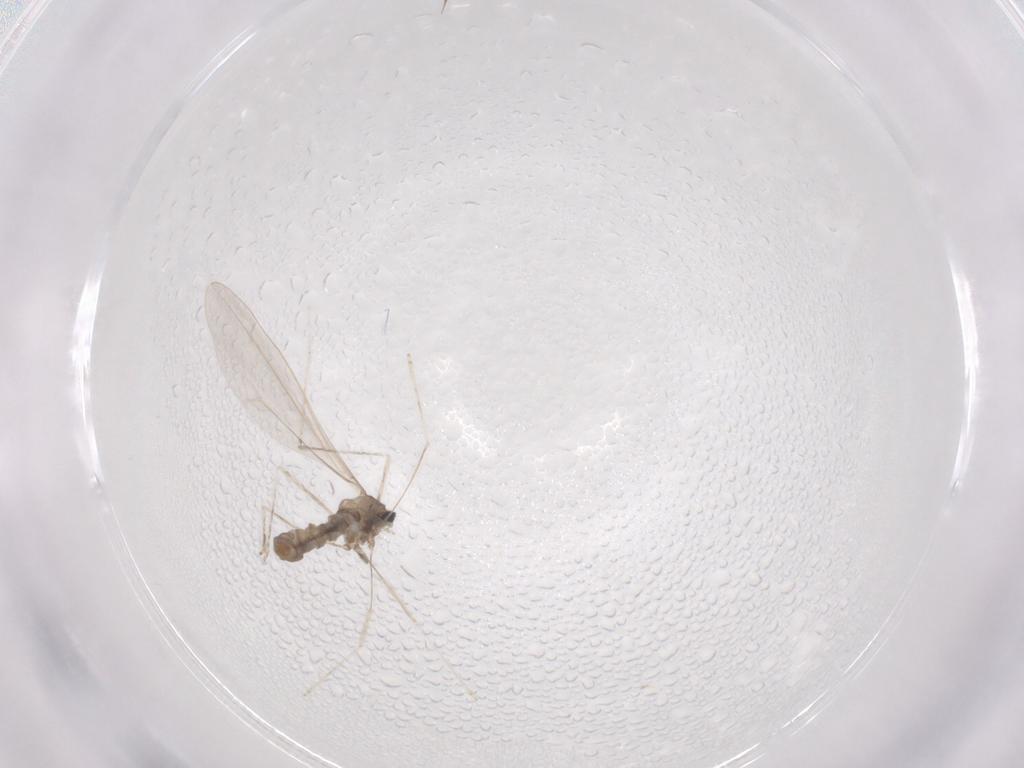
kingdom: Animalia
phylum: Arthropoda
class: Insecta
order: Diptera
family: Cecidomyiidae
